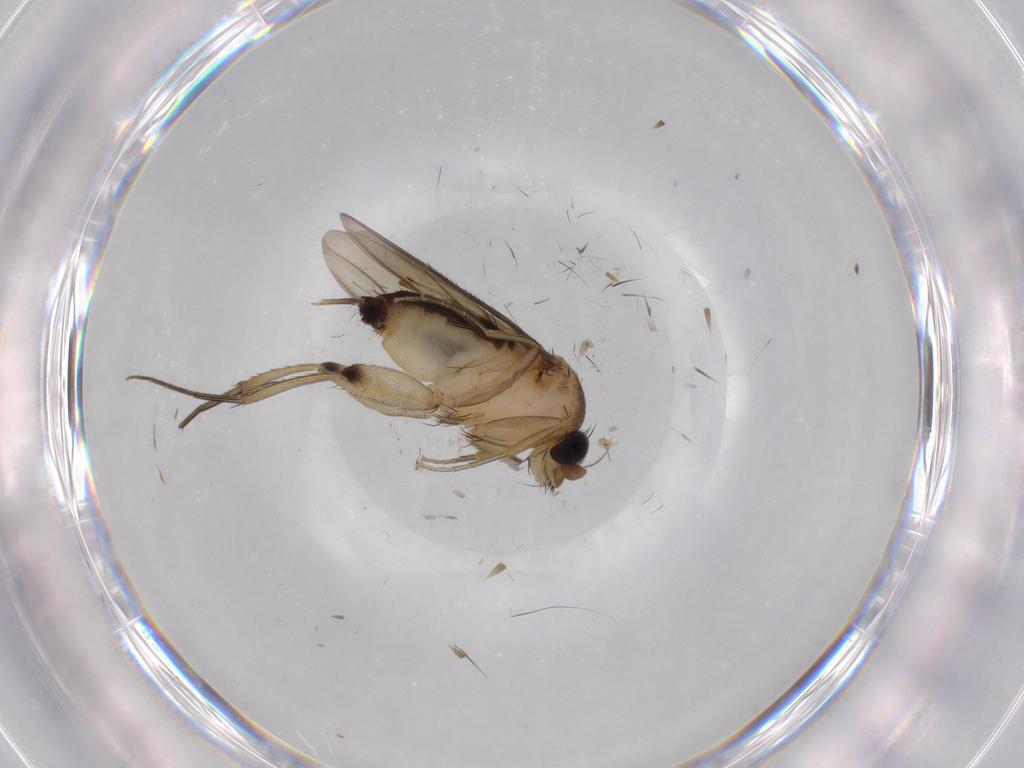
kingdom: Animalia
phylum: Arthropoda
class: Insecta
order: Diptera
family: Phoridae
